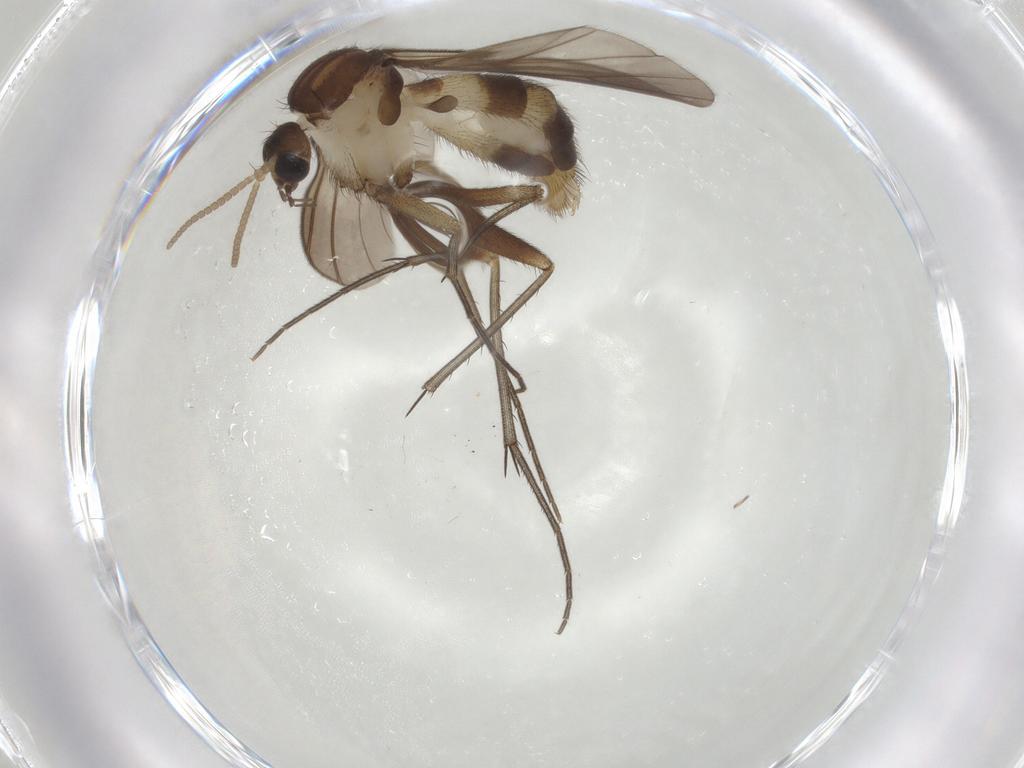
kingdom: Animalia
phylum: Arthropoda
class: Insecta
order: Diptera
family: Chironomidae
